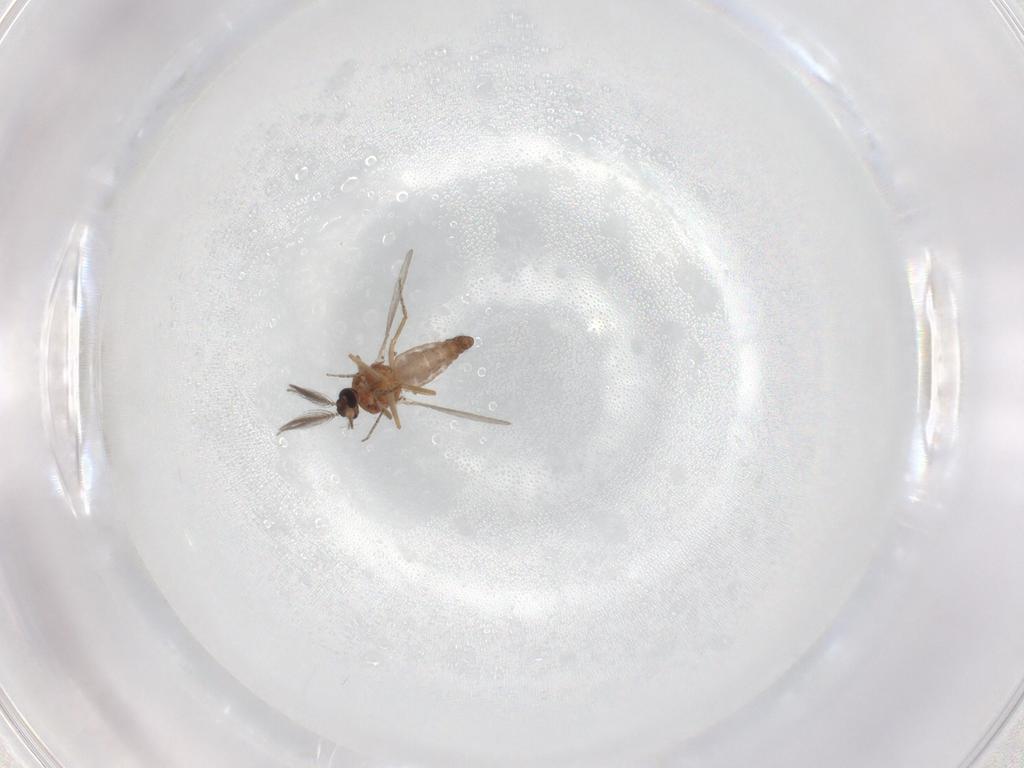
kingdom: Animalia
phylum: Arthropoda
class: Insecta
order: Diptera
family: Ceratopogonidae
